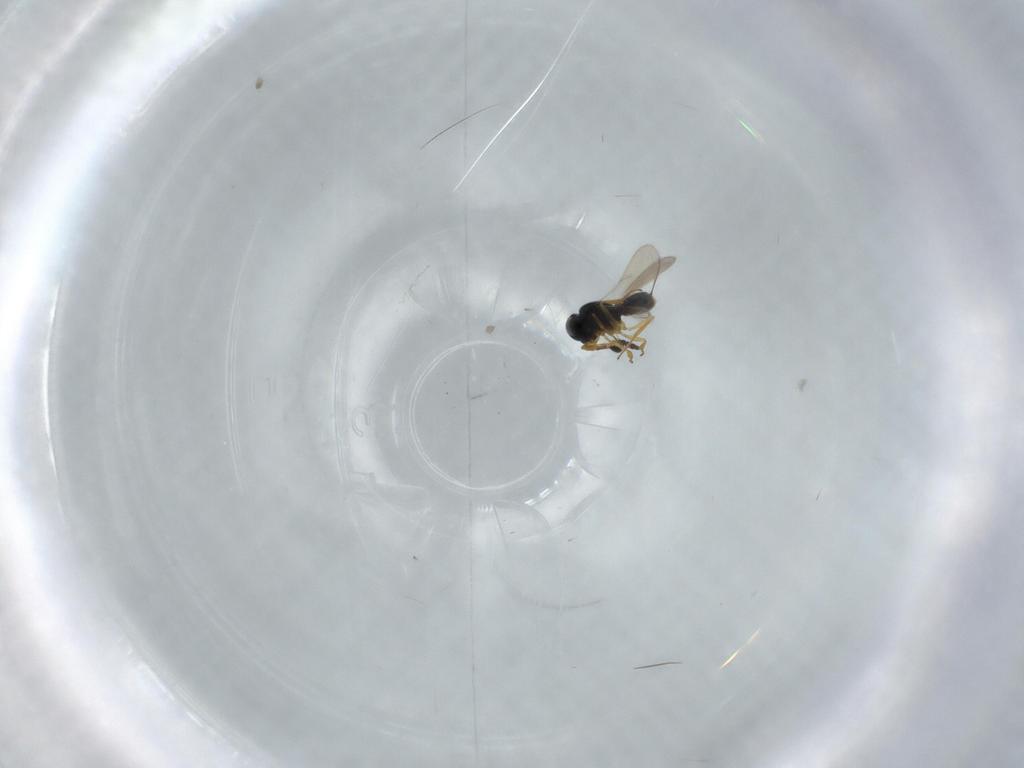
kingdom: Animalia
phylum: Arthropoda
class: Insecta
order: Hymenoptera
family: Scelionidae
